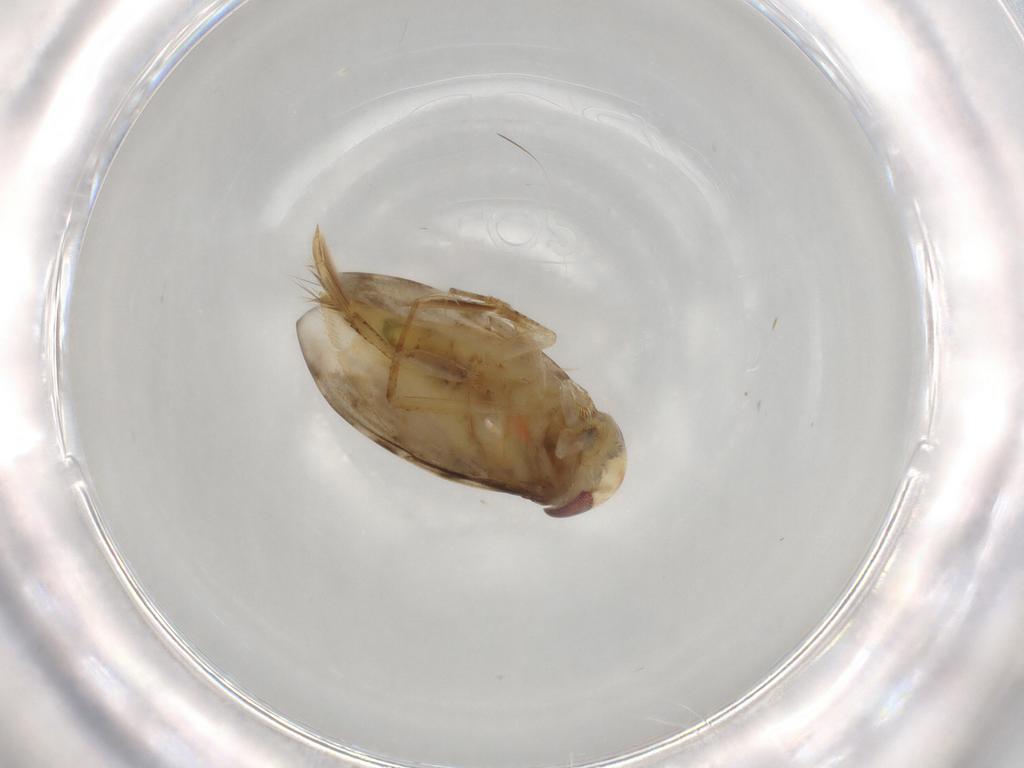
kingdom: Animalia
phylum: Arthropoda
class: Insecta
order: Hemiptera
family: Corixidae
